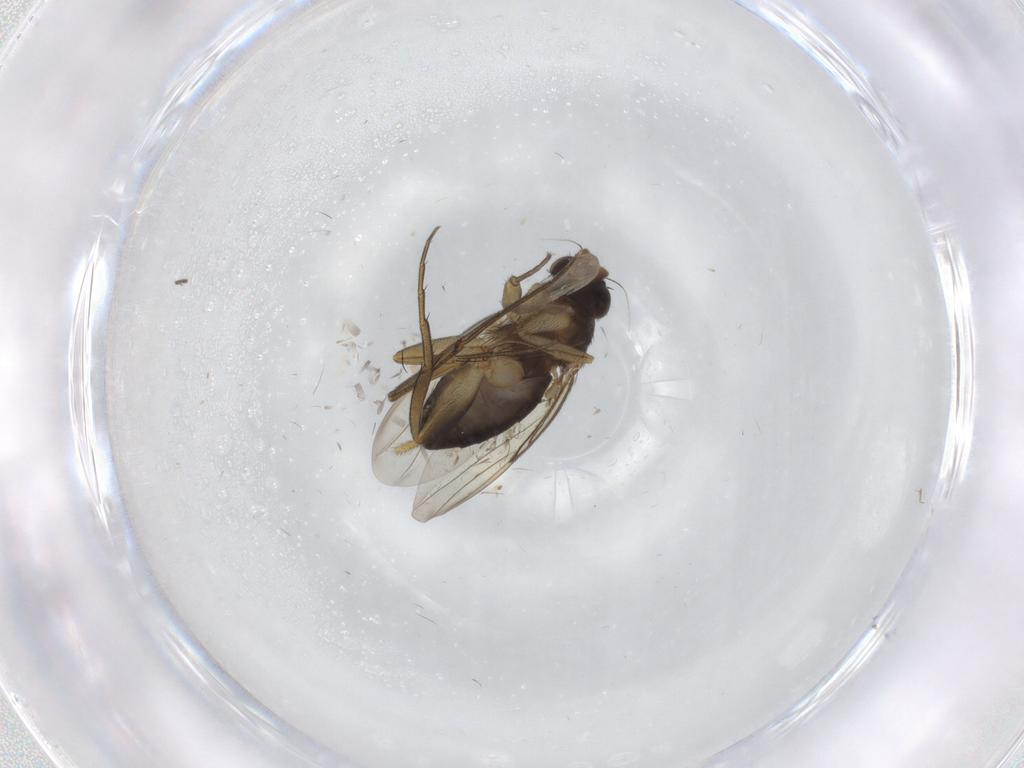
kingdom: Animalia
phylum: Arthropoda
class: Insecta
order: Diptera
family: Phoridae
